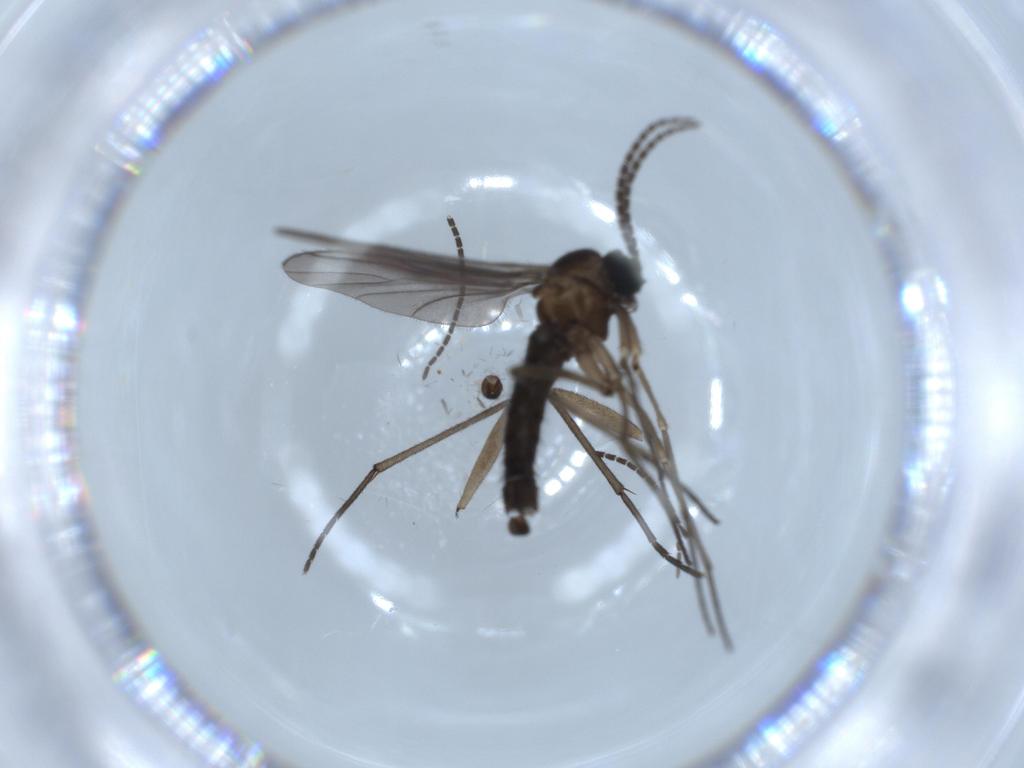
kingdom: Animalia
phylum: Arthropoda
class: Insecta
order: Diptera
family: Sciaridae
